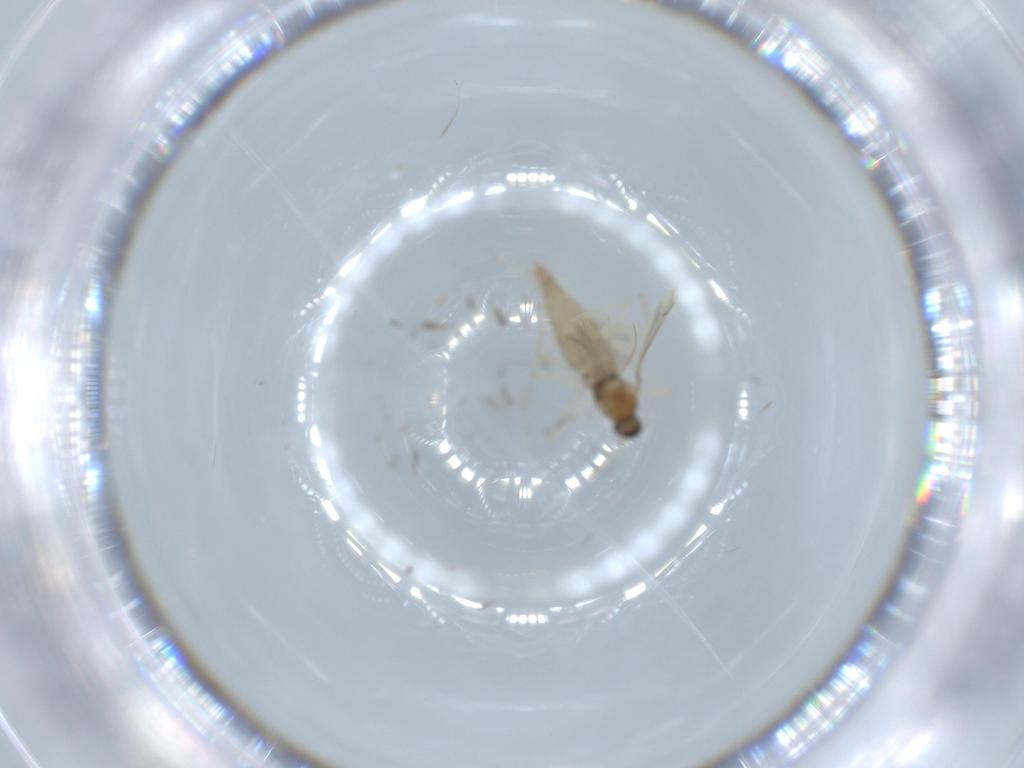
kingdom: Animalia
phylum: Arthropoda
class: Insecta
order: Diptera
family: Cecidomyiidae
